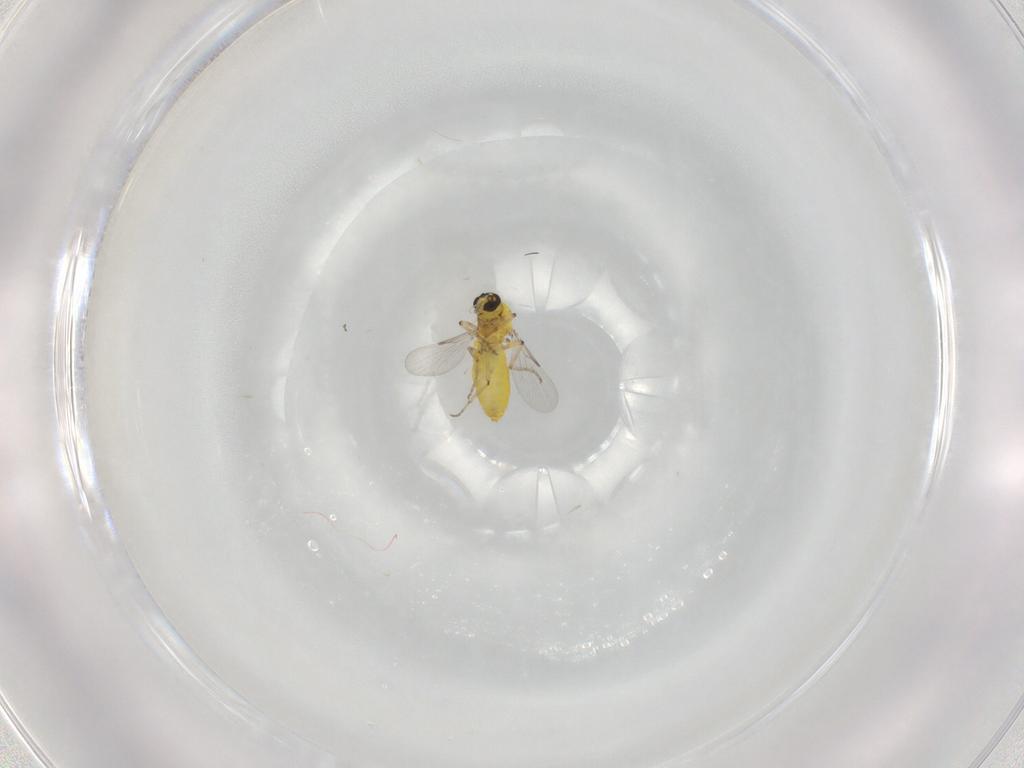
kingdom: Animalia
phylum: Arthropoda
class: Insecta
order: Diptera
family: Ceratopogonidae
